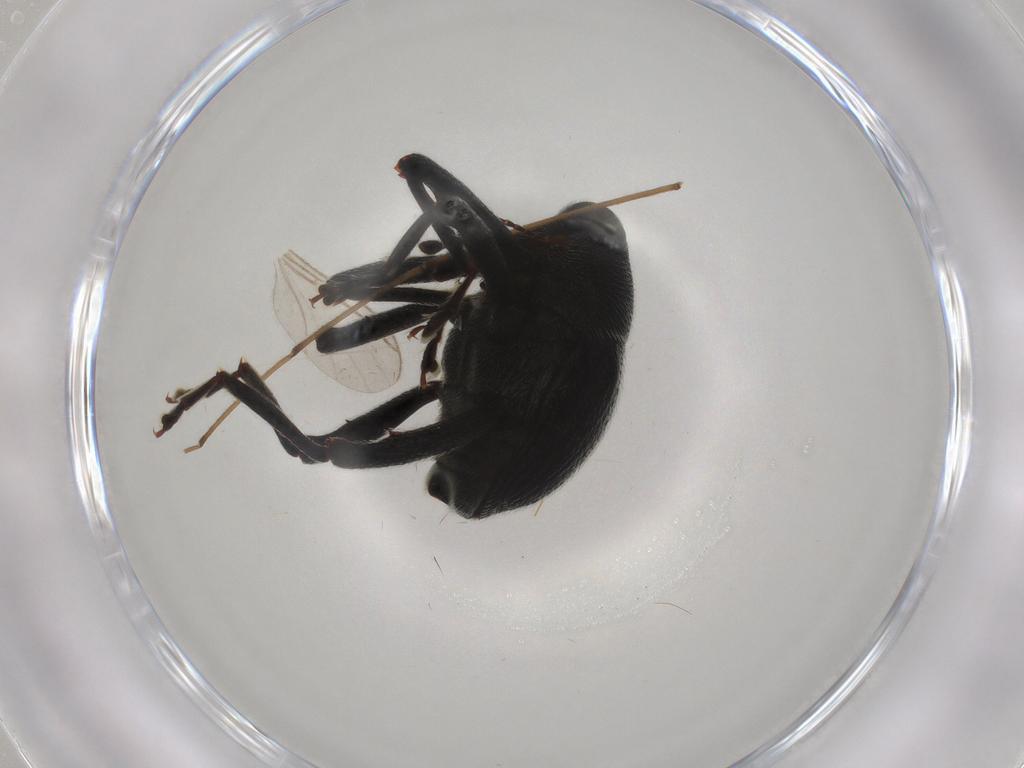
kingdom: Animalia
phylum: Arthropoda
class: Insecta
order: Coleoptera
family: Curculionidae
